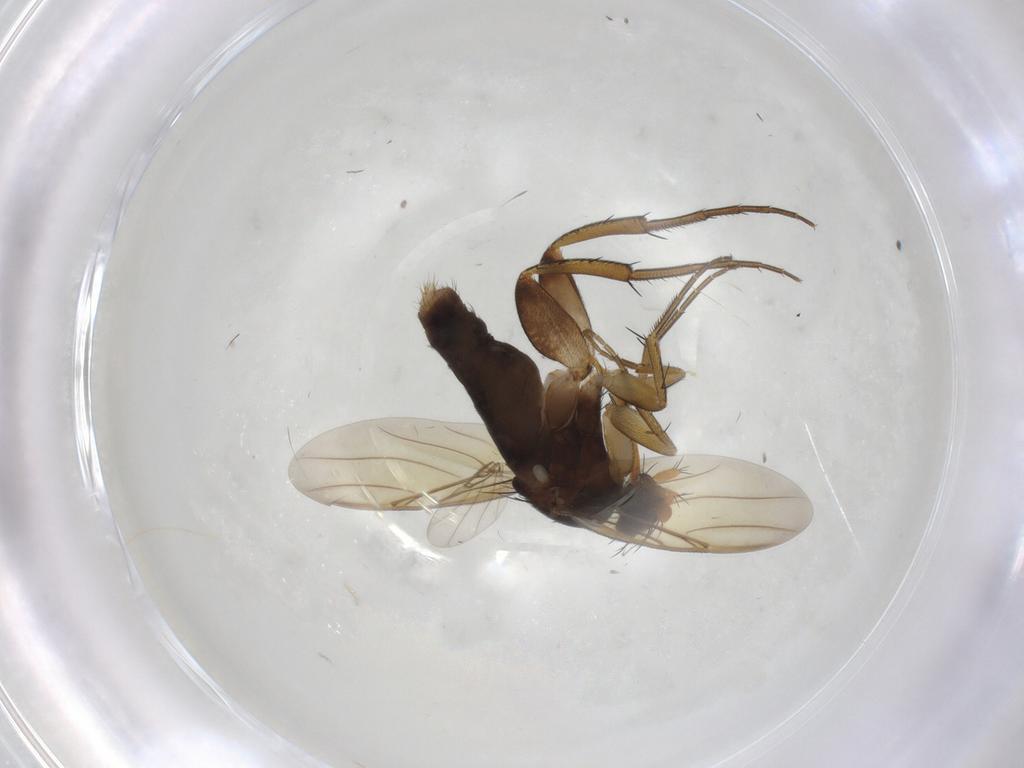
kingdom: Animalia
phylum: Arthropoda
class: Insecta
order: Diptera
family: Phoridae
